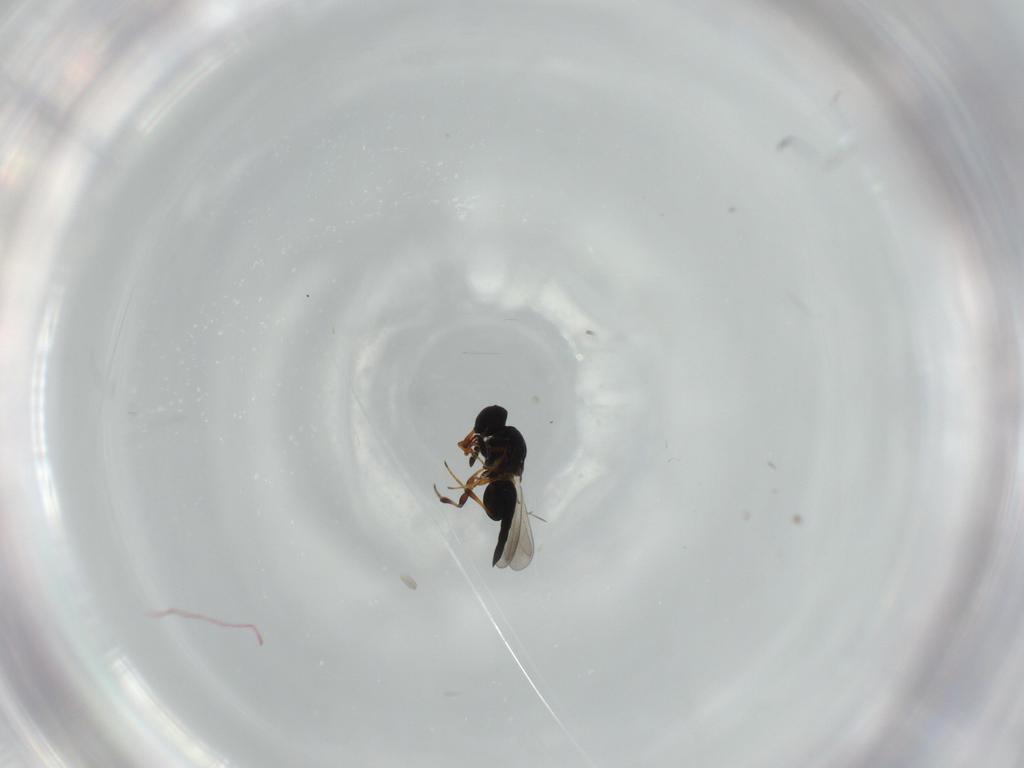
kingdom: Animalia
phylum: Arthropoda
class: Insecta
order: Hymenoptera
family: Platygastridae
